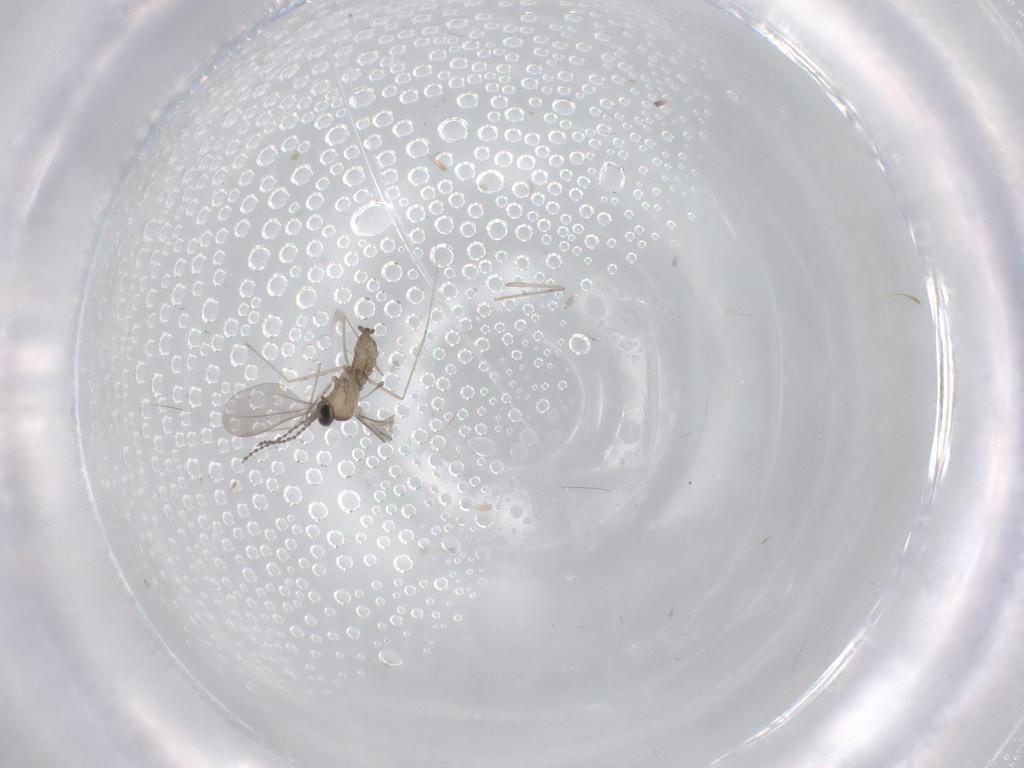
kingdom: Animalia
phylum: Arthropoda
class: Insecta
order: Diptera
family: Cecidomyiidae
